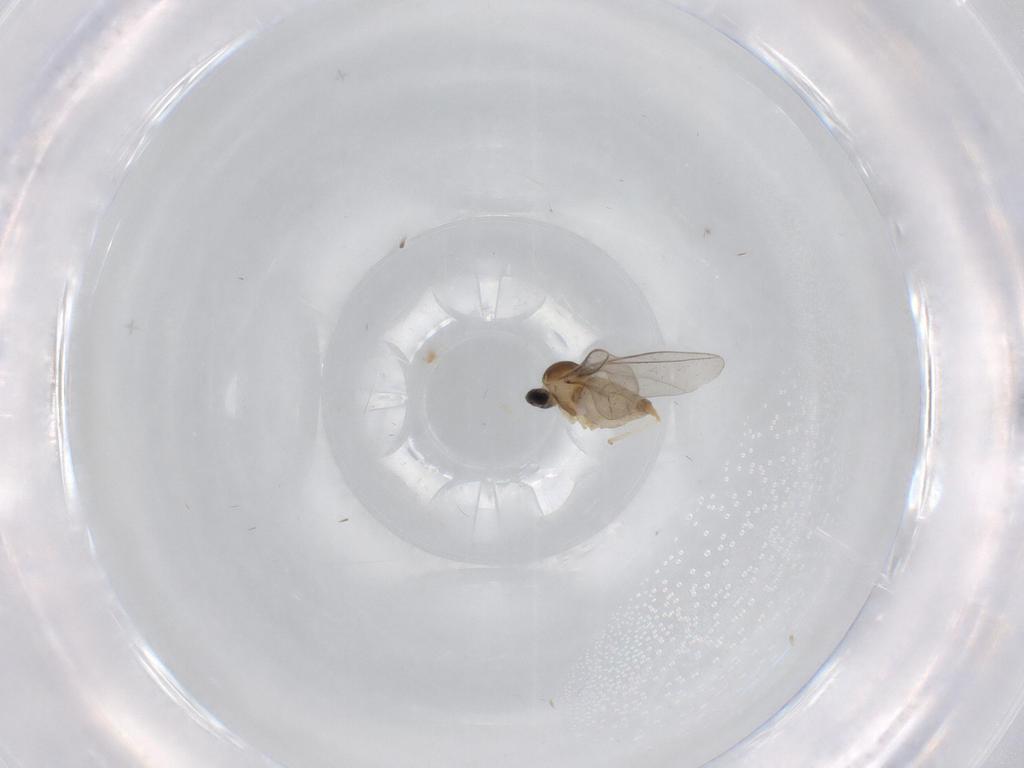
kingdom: Animalia
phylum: Arthropoda
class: Insecta
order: Diptera
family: Cecidomyiidae
